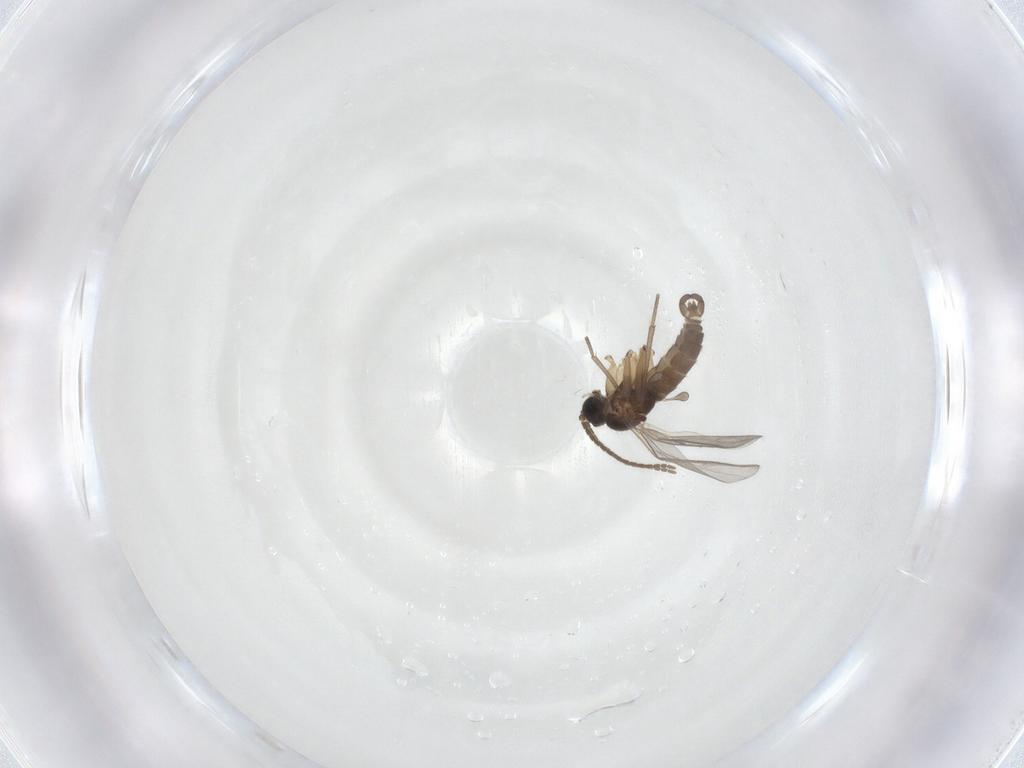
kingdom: Animalia
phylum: Arthropoda
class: Insecta
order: Diptera
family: Sciaridae
